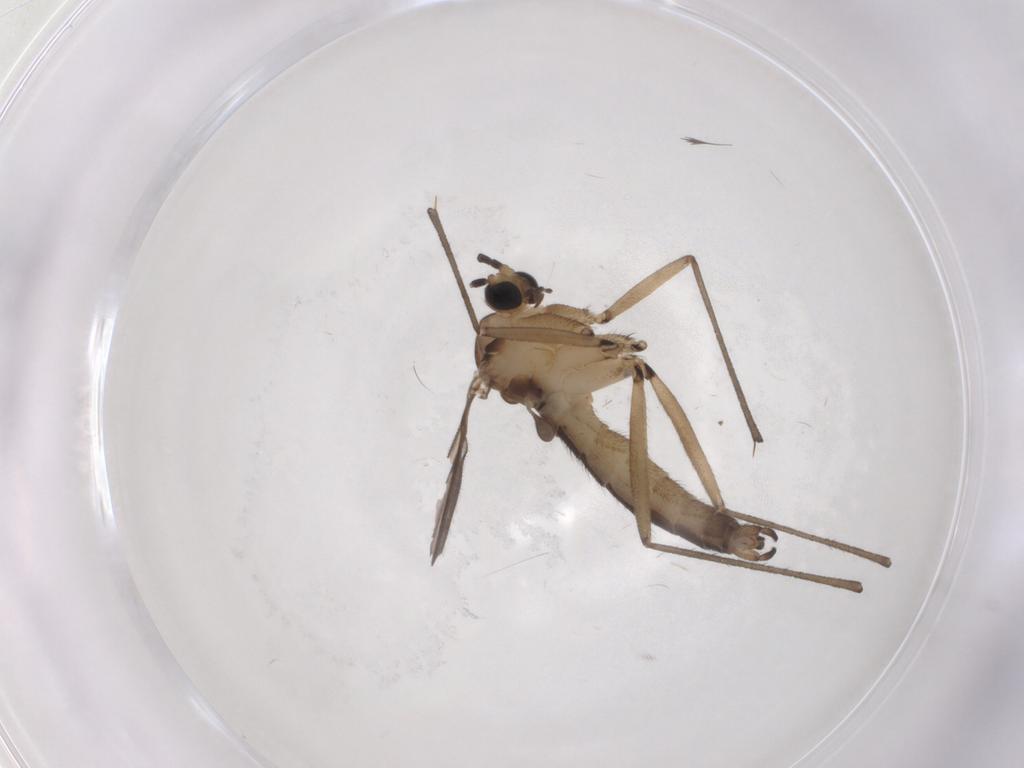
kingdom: Animalia
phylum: Arthropoda
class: Insecta
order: Diptera
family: Sciaridae
